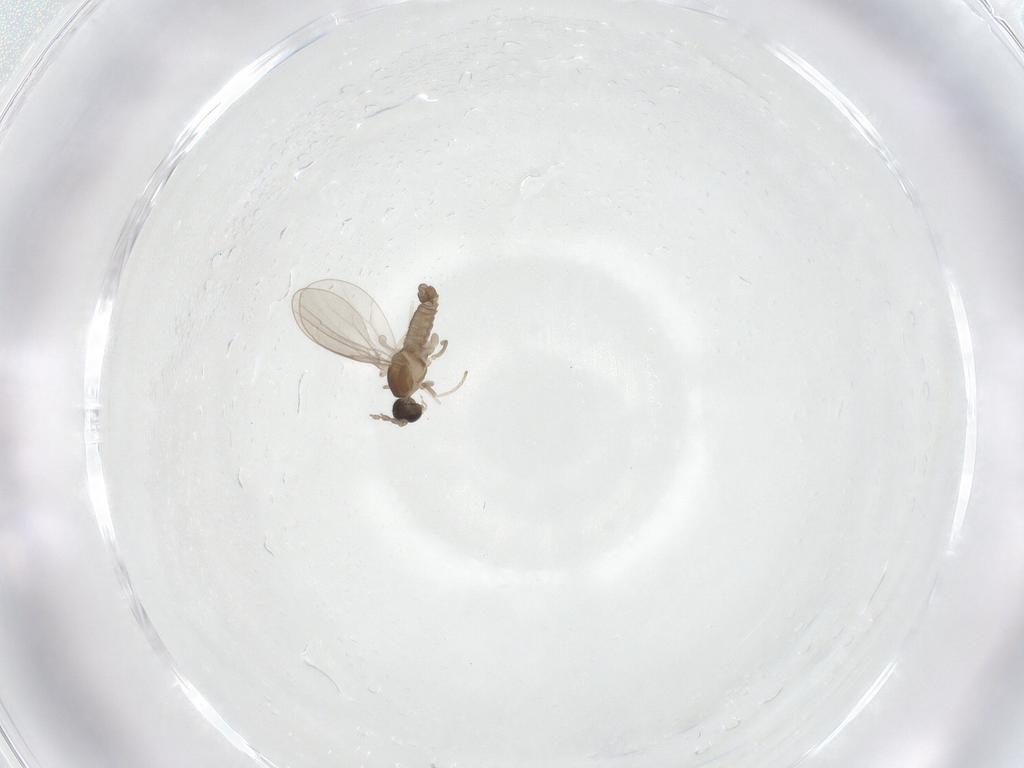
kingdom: Animalia
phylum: Arthropoda
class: Insecta
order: Diptera
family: Cecidomyiidae
